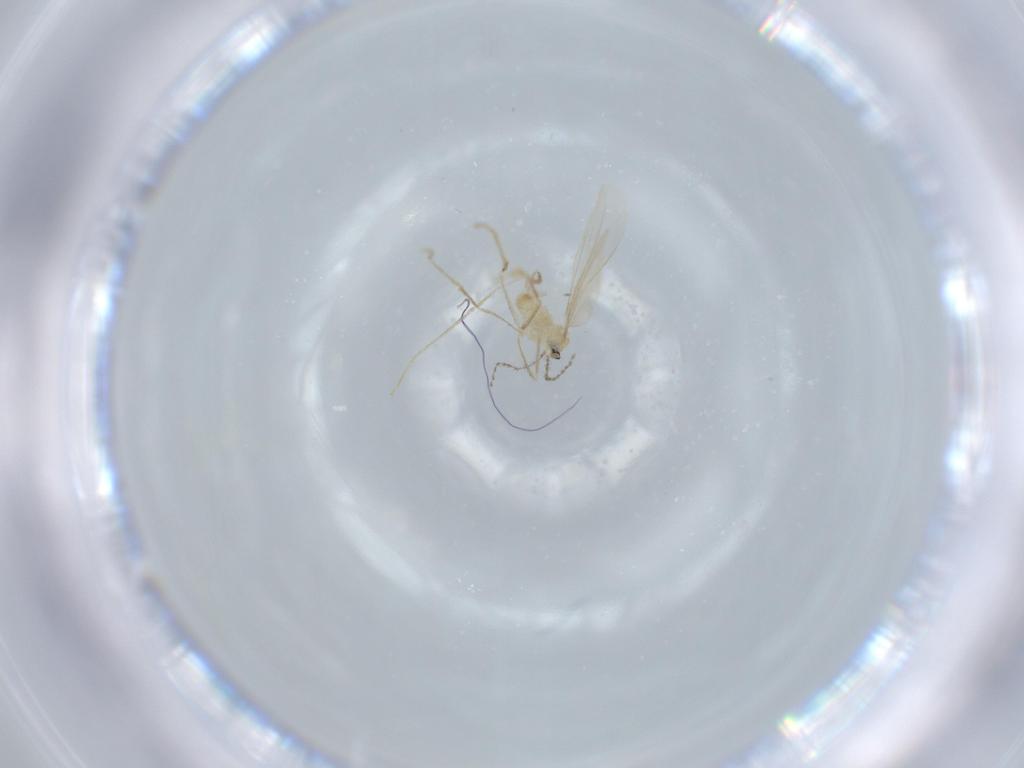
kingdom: Animalia
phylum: Arthropoda
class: Insecta
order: Diptera
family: Cecidomyiidae
